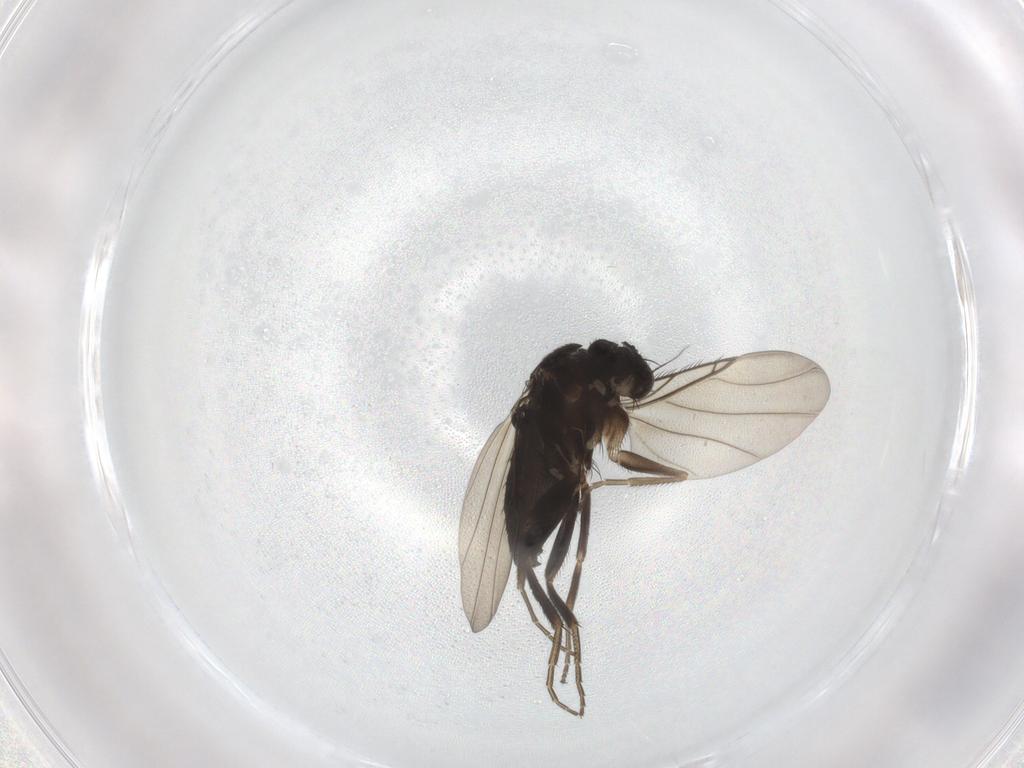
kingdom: Animalia
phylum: Arthropoda
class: Insecta
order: Diptera
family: Phoridae
